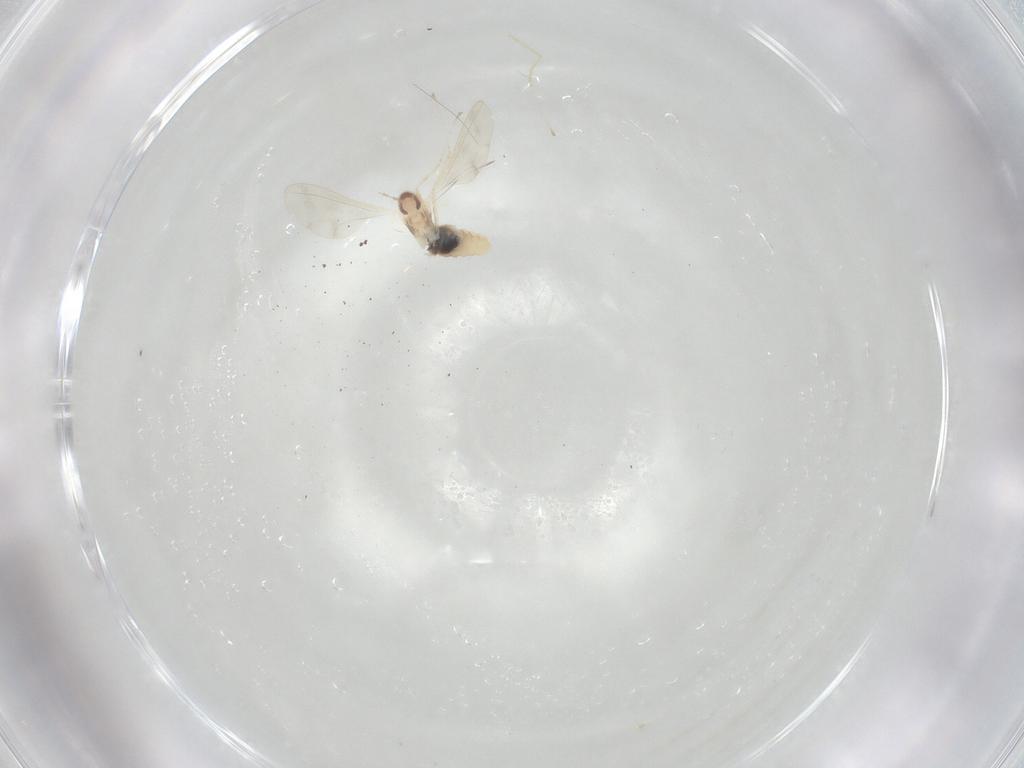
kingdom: Animalia
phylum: Arthropoda
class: Insecta
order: Diptera
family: Cecidomyiidae
